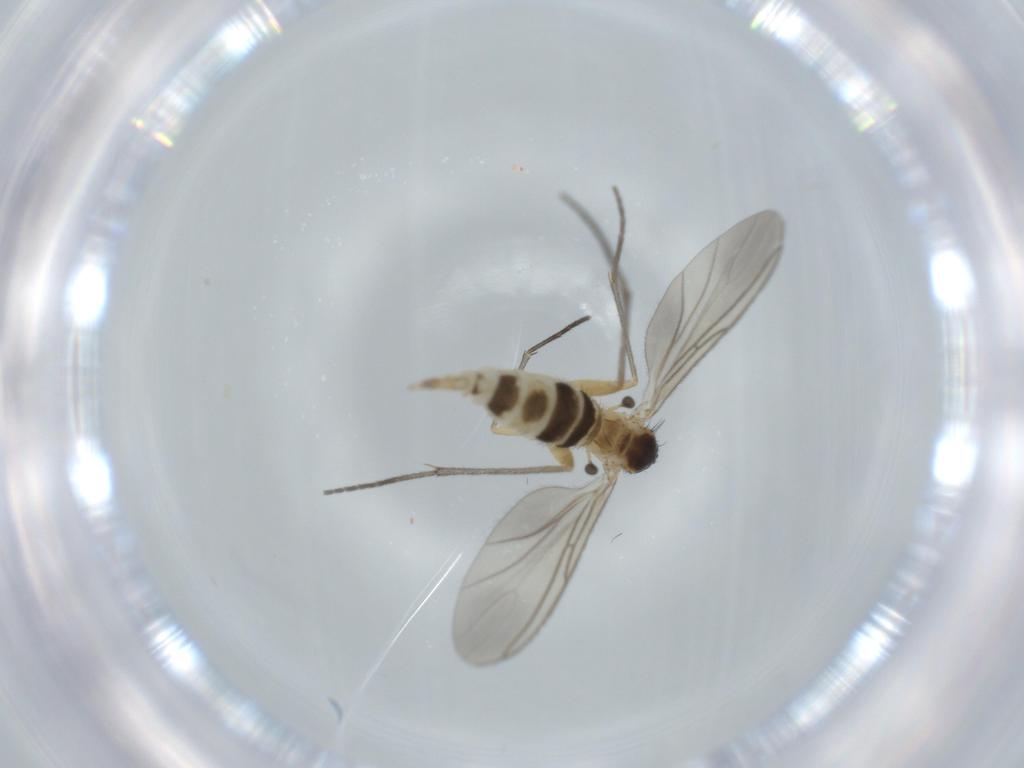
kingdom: Animalia
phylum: Arthropoda
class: Insecta
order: Diptera
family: Sciaridae
